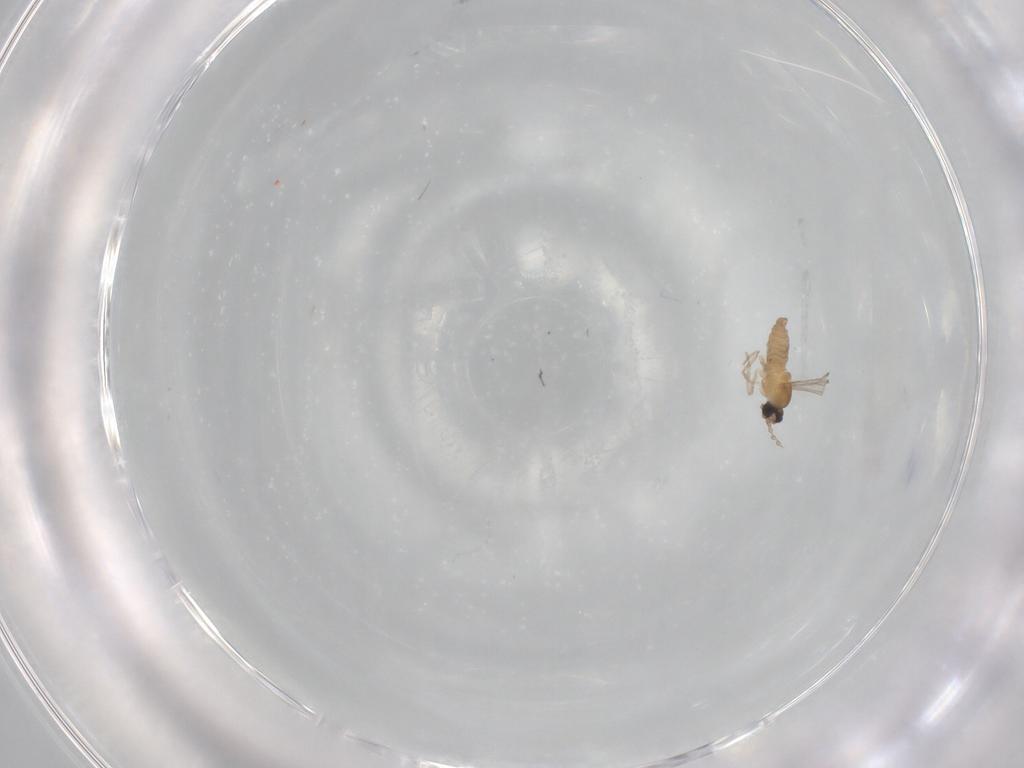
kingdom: Animalia
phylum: Arthropoda
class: Insecta
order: Diptera
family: Cecidomyiidae
